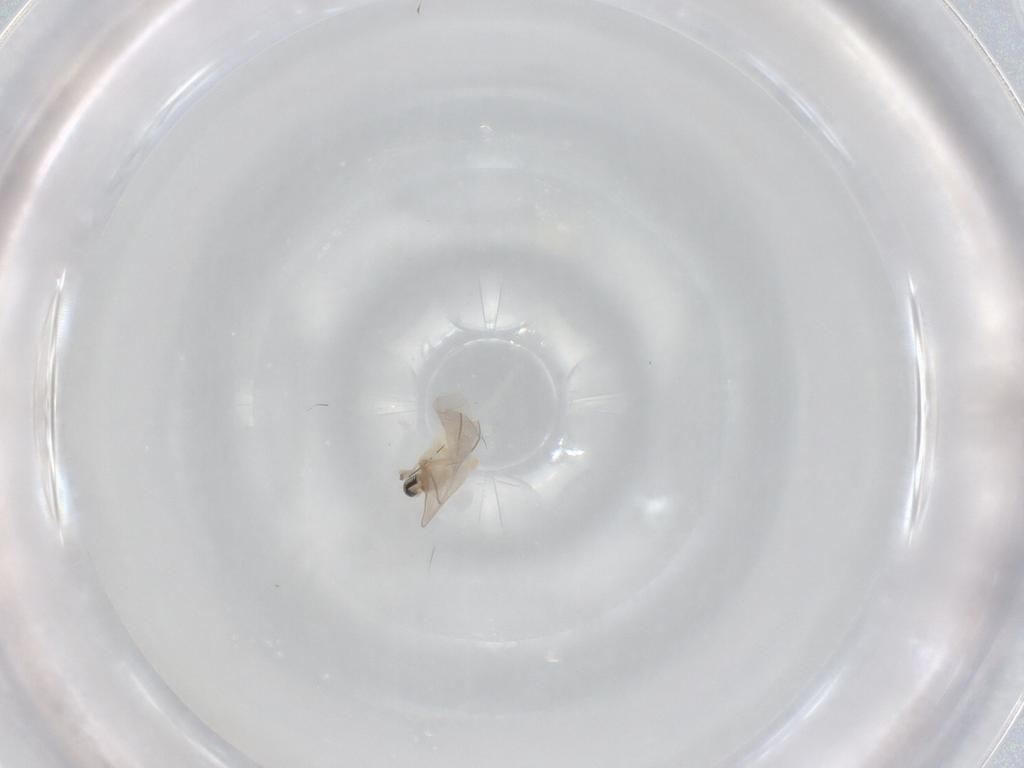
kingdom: Animalia
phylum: Arthropoda
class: Insecta
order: Diptera
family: Cecidomyiidae
